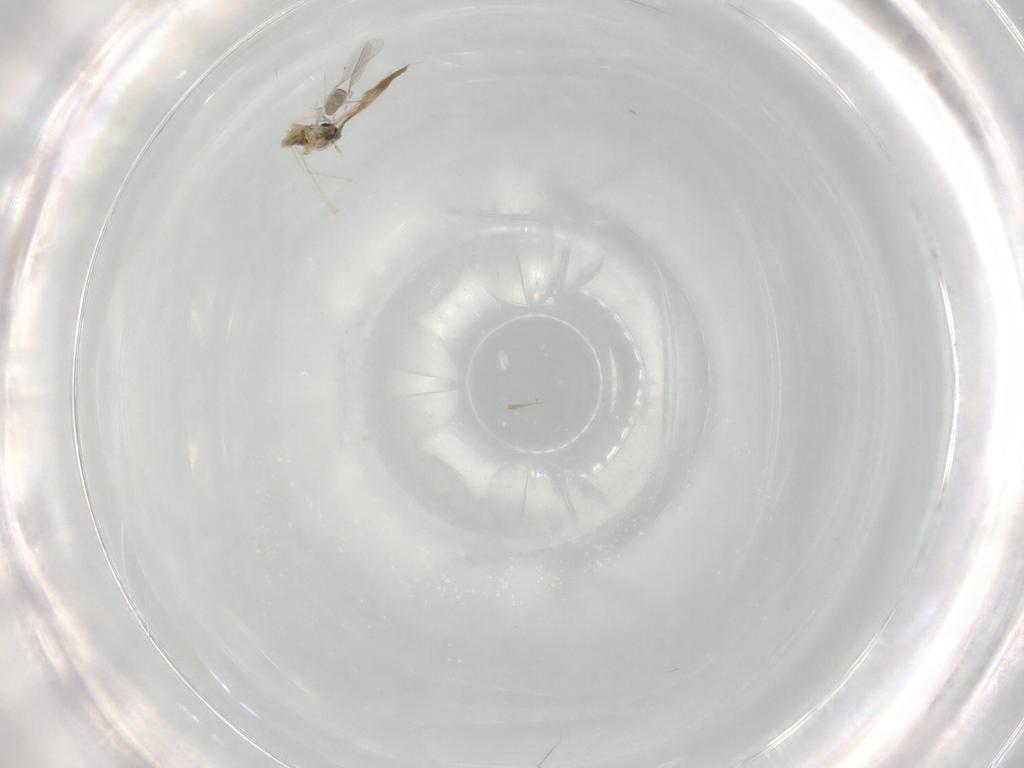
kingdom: Animalia
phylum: Arthropoda
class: Insecta
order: Diptera
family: Cecidomyiidae
